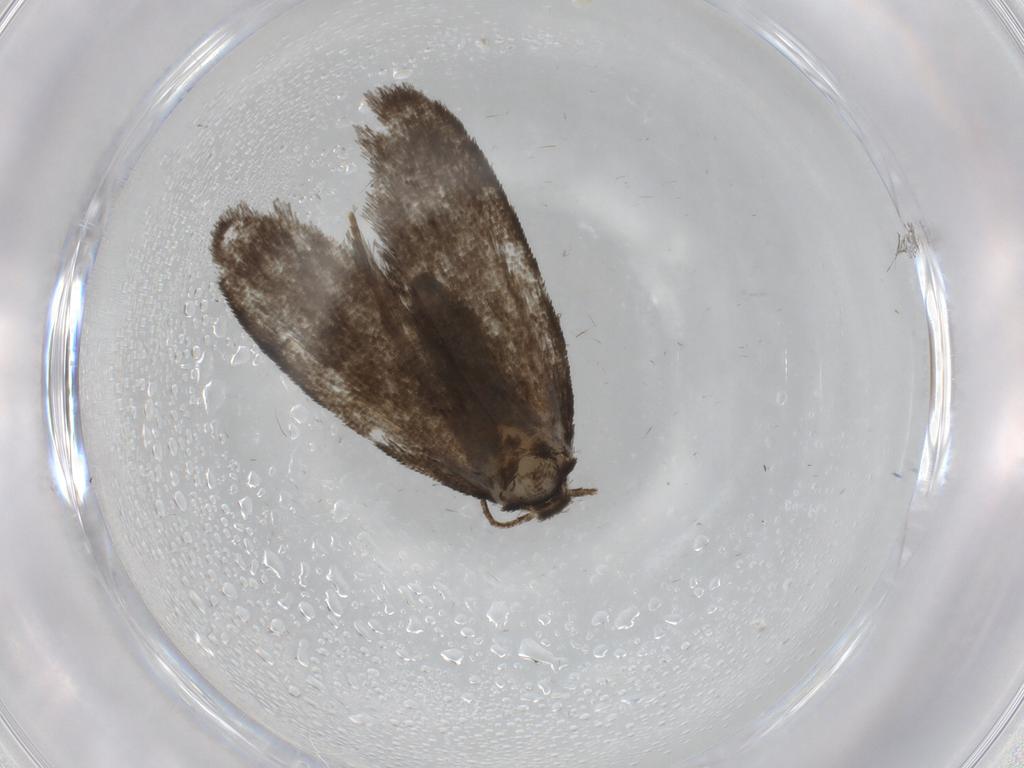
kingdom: Animalia
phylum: Arthropoda
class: Insecta
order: Lepidoptera
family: Psychidae
